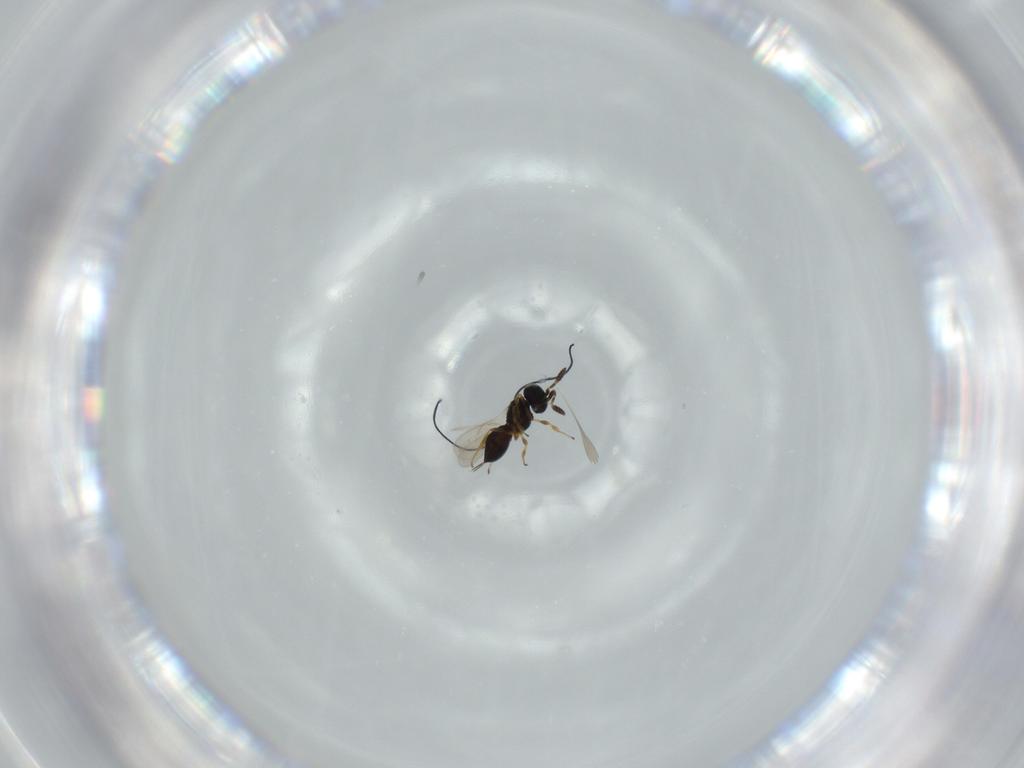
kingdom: Animalia
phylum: Arthropoda
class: Insecta
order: Hymenoptera
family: Scelionidae
